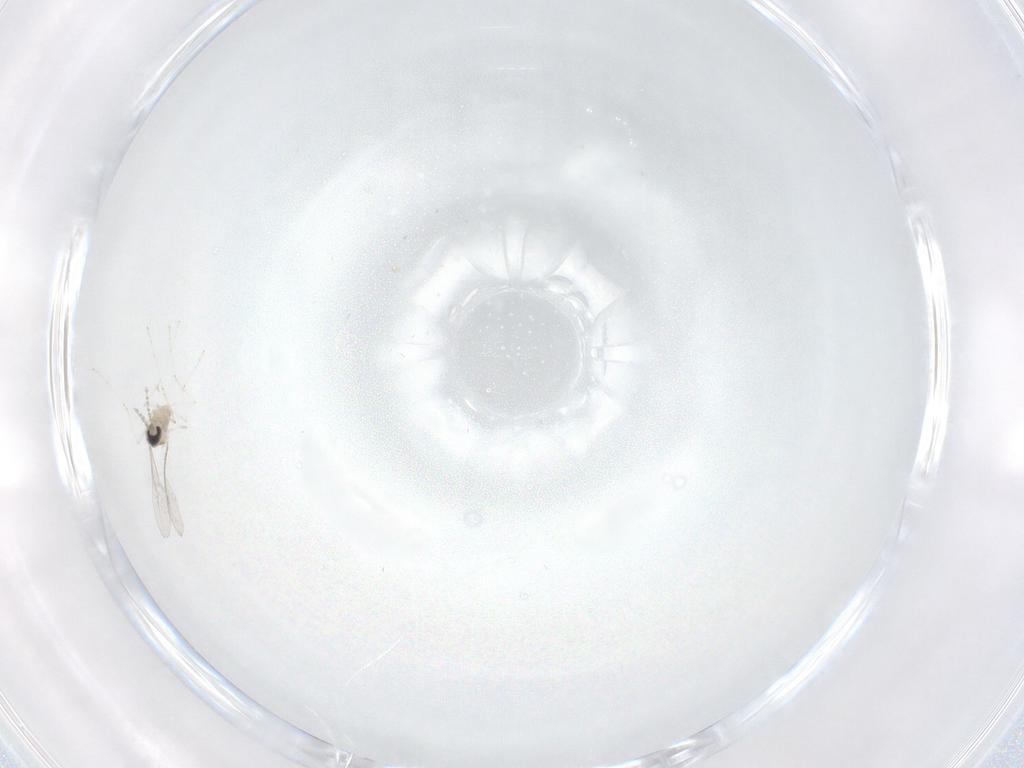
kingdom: Animalia
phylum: Arthropoda
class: Insecta
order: Diptera
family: Cecidomyiidae
